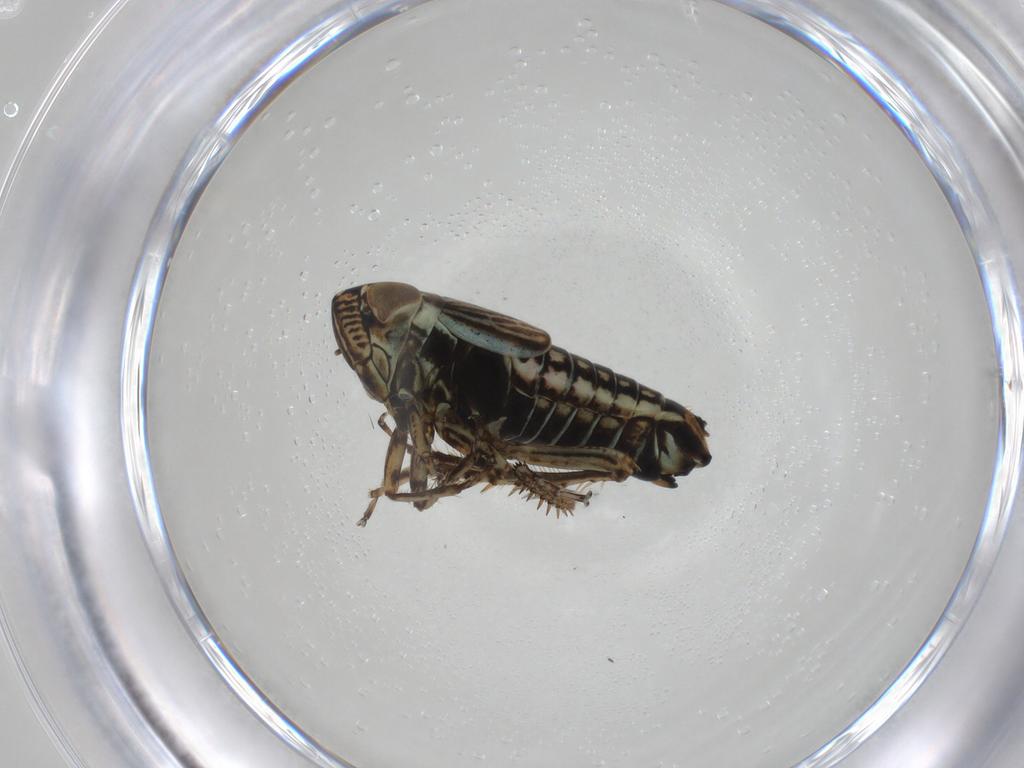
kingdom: Animalia
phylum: Arthropoda
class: Insecta
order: Hemiptera
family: Cicadellidae
